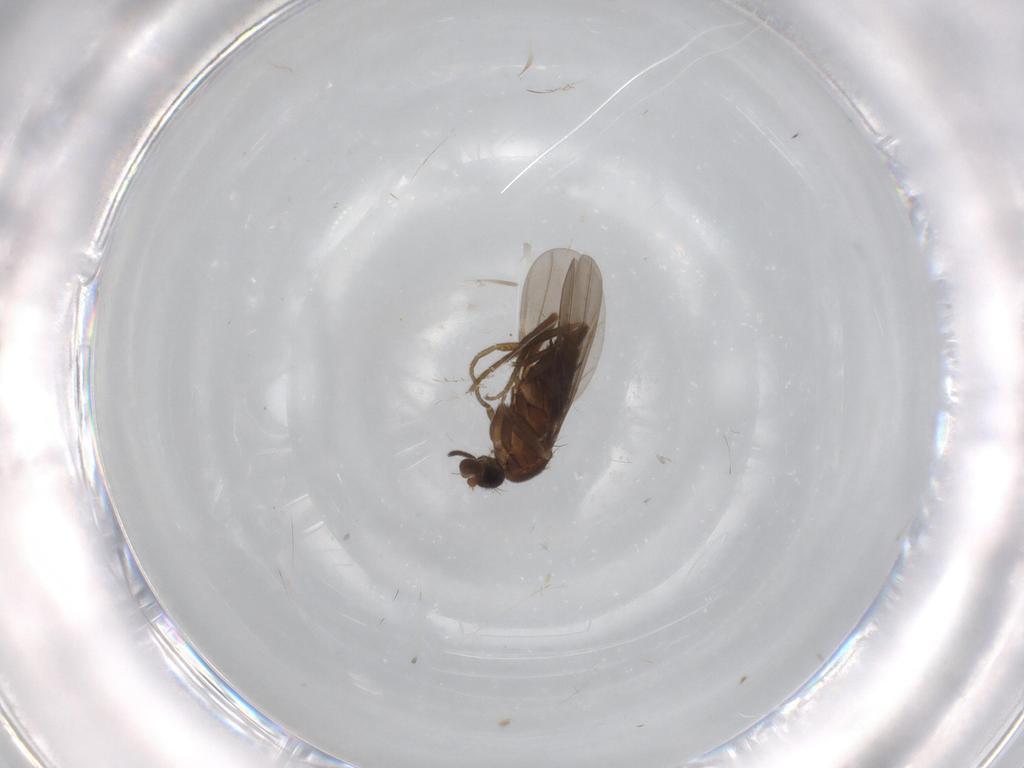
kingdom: Animalia
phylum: Arthropoda
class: Insecta
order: Diptera
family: Phoridae
